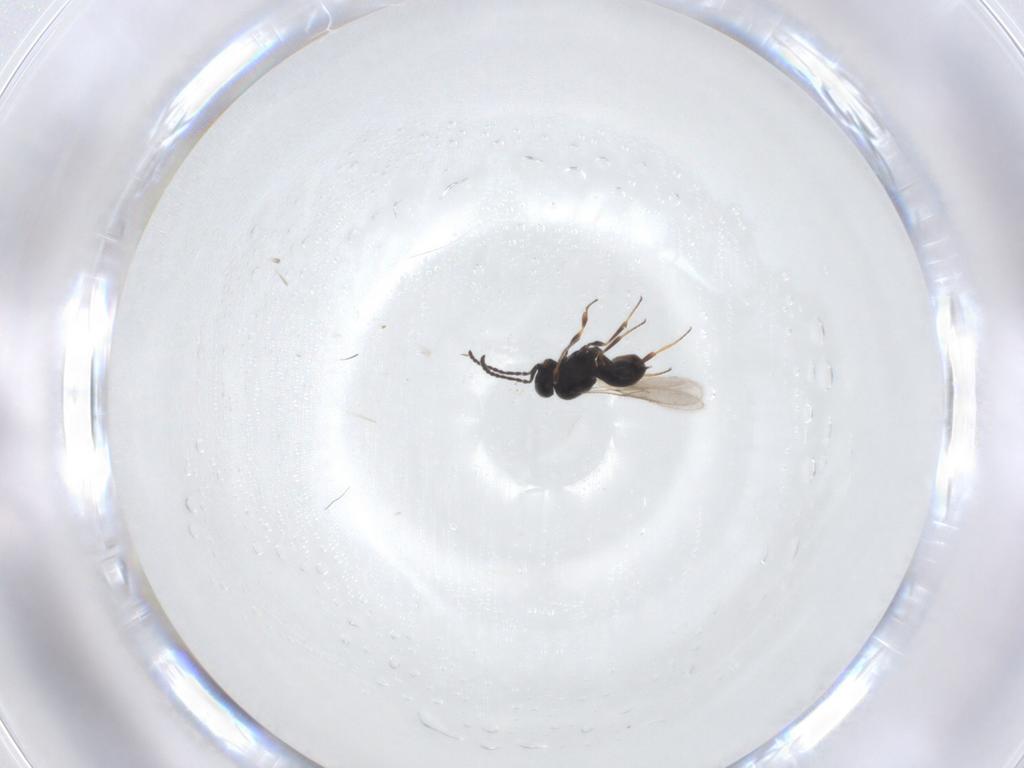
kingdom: Animalia
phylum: Arthropoda
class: Insecta
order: Hymenoptera
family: Scelionidae
